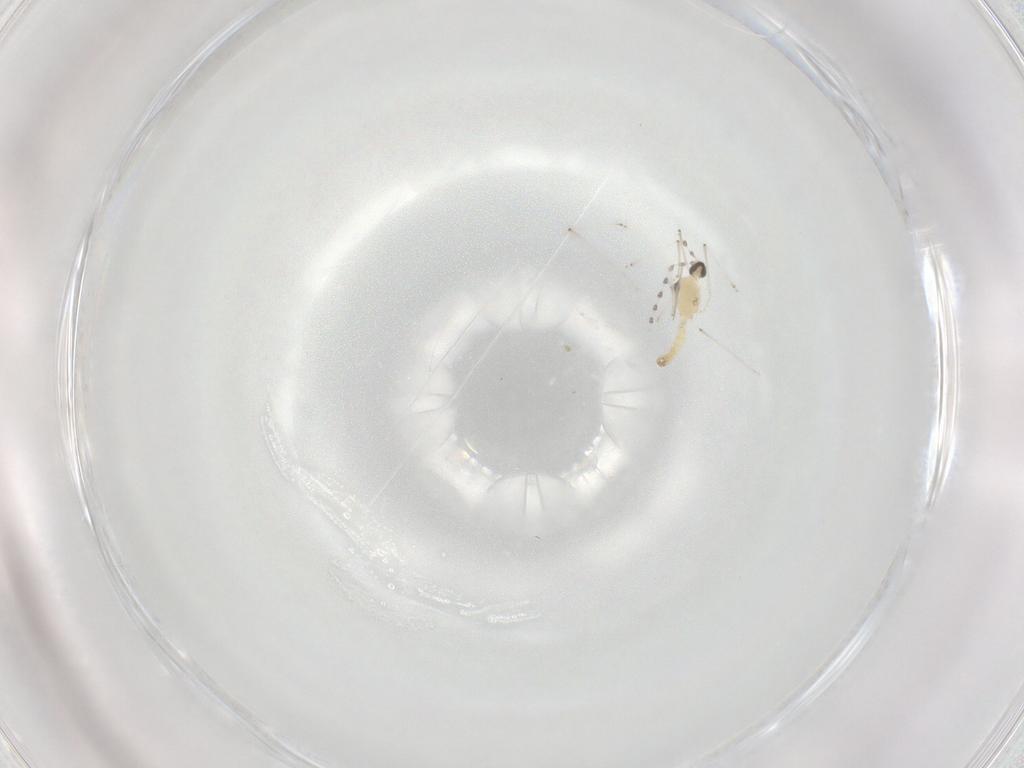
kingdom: Animalia
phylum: Arthropoda
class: Insecta
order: Diptera
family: Cecidomyiidae
